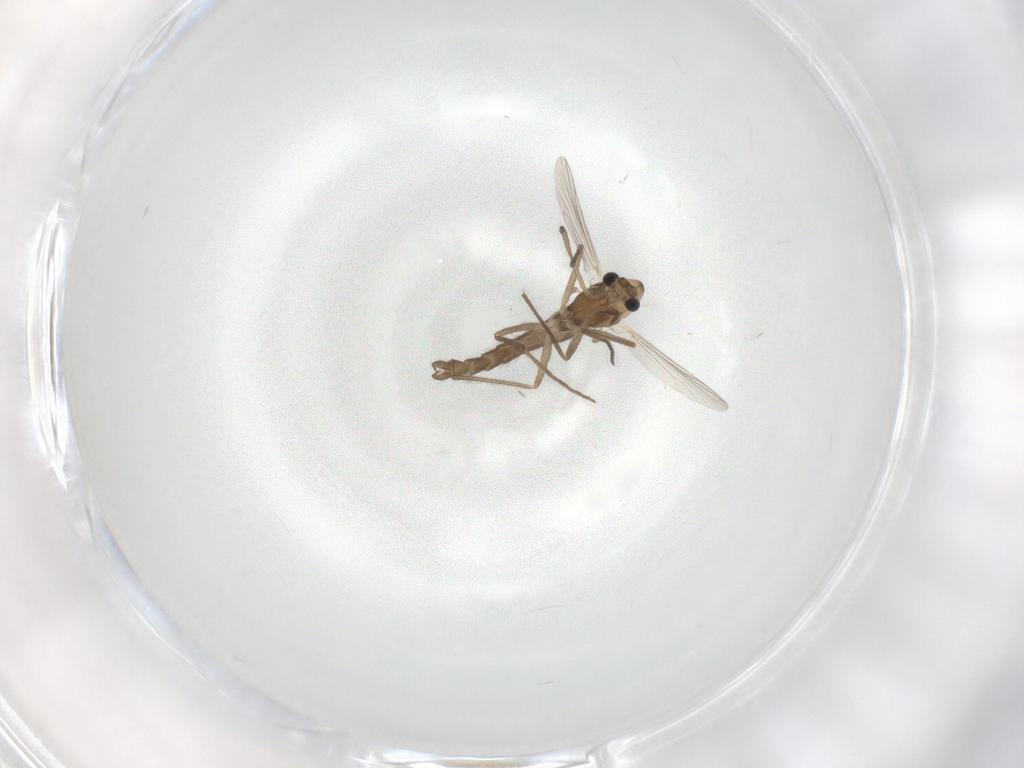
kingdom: Animalia
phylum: Arthropoda
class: Insecta
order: Diptera
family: Chironomidae
